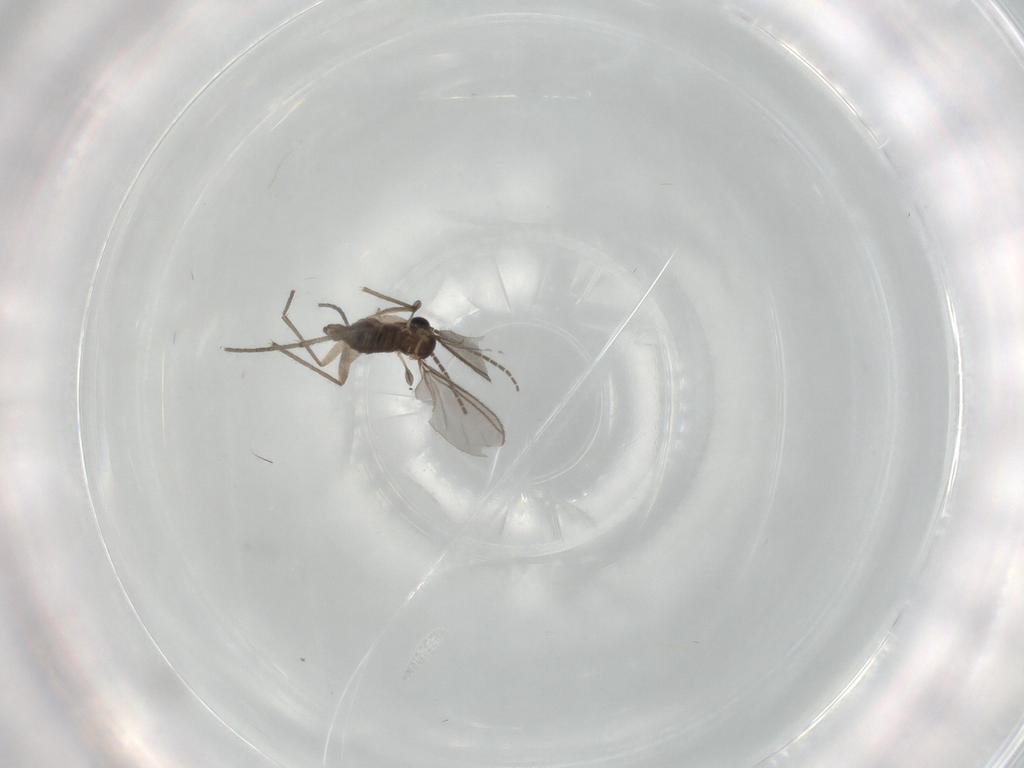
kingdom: Animalia
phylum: Arthropoda
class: Insecta
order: Diptera
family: Sciaridae
